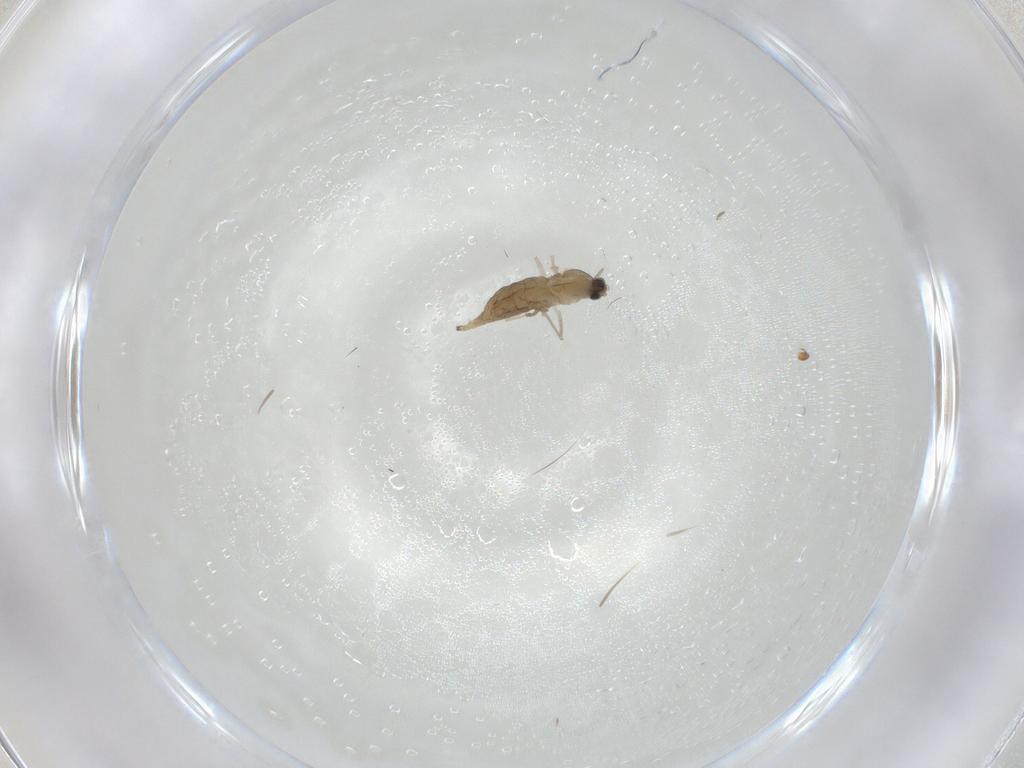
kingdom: Animalia
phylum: Arthropoda
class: Insecta
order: Diptera
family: Cecidomyiidae
